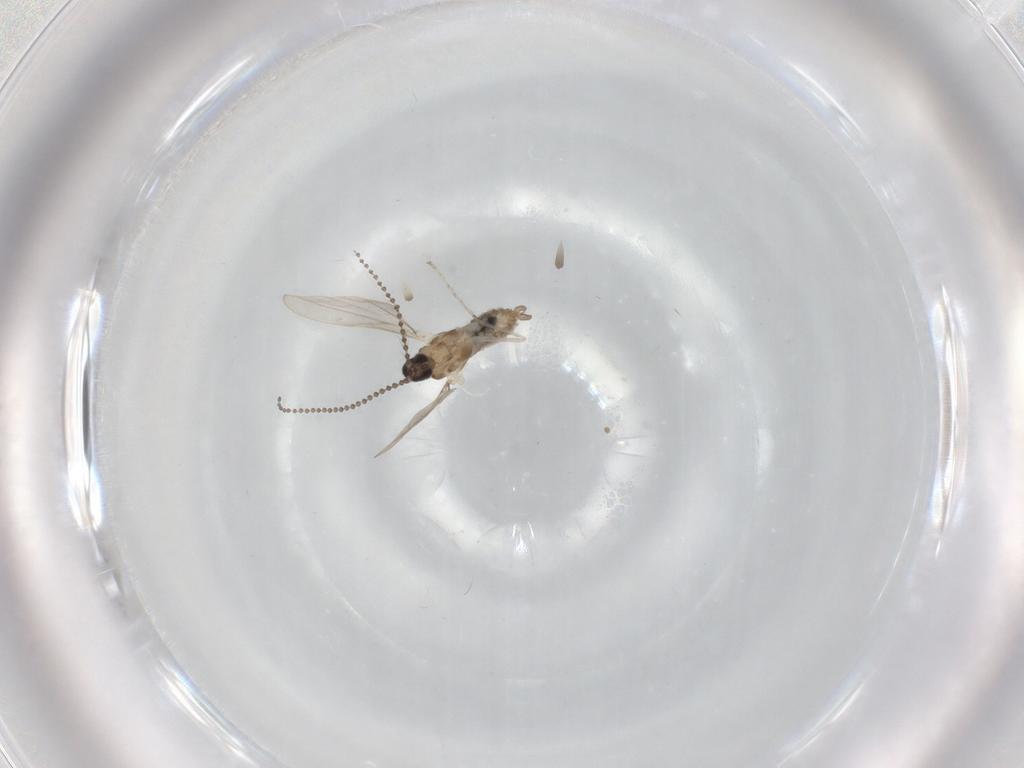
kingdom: Animalia
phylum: Arthropoda
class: Insecta
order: Diptera
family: Cecidomyiidae
